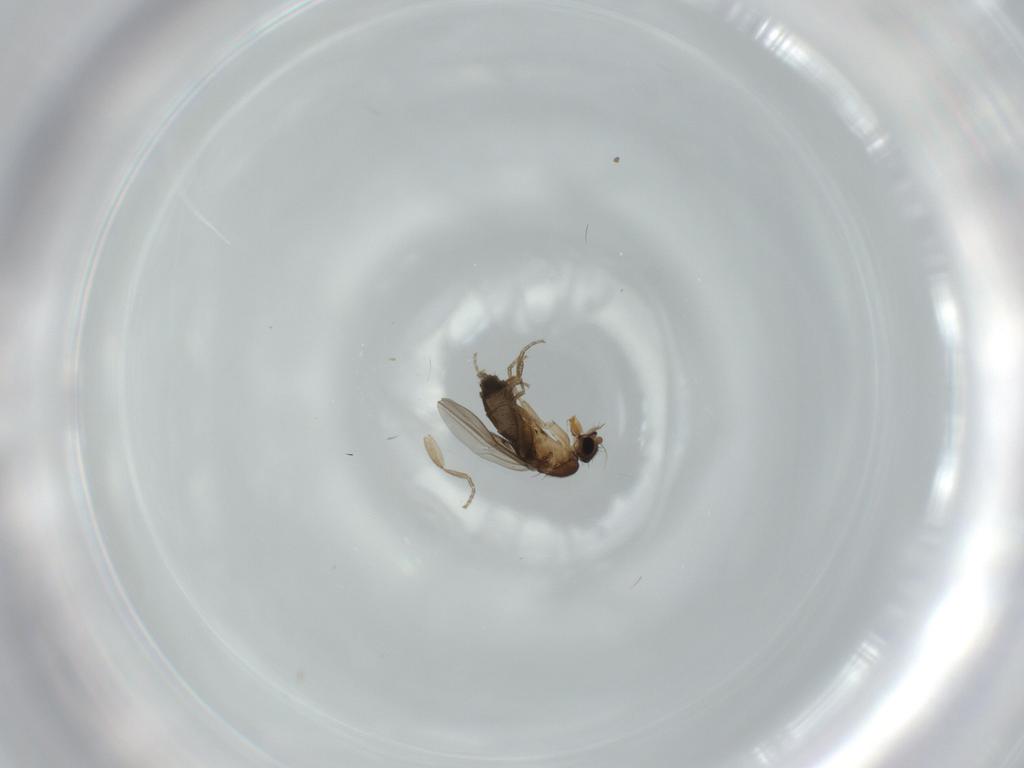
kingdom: Animalia
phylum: Arthropoda
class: Insecta
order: Diptera
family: Phoridae
